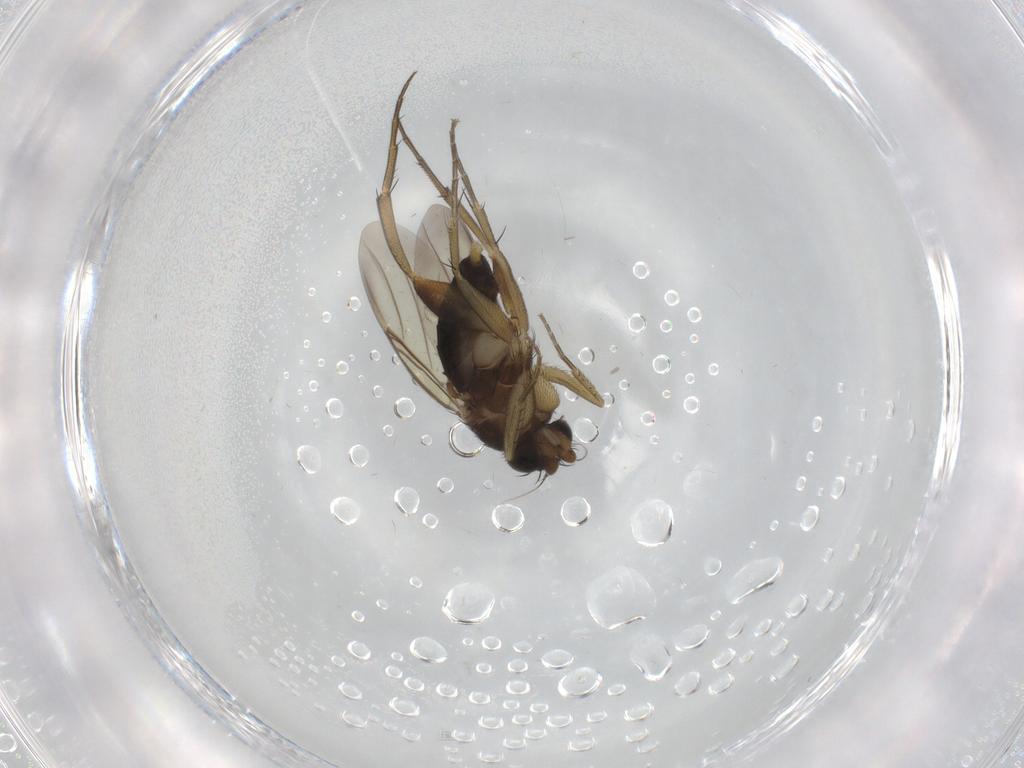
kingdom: Animalia
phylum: Arthropoda
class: Insecta
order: Diptera
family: Phoridae
